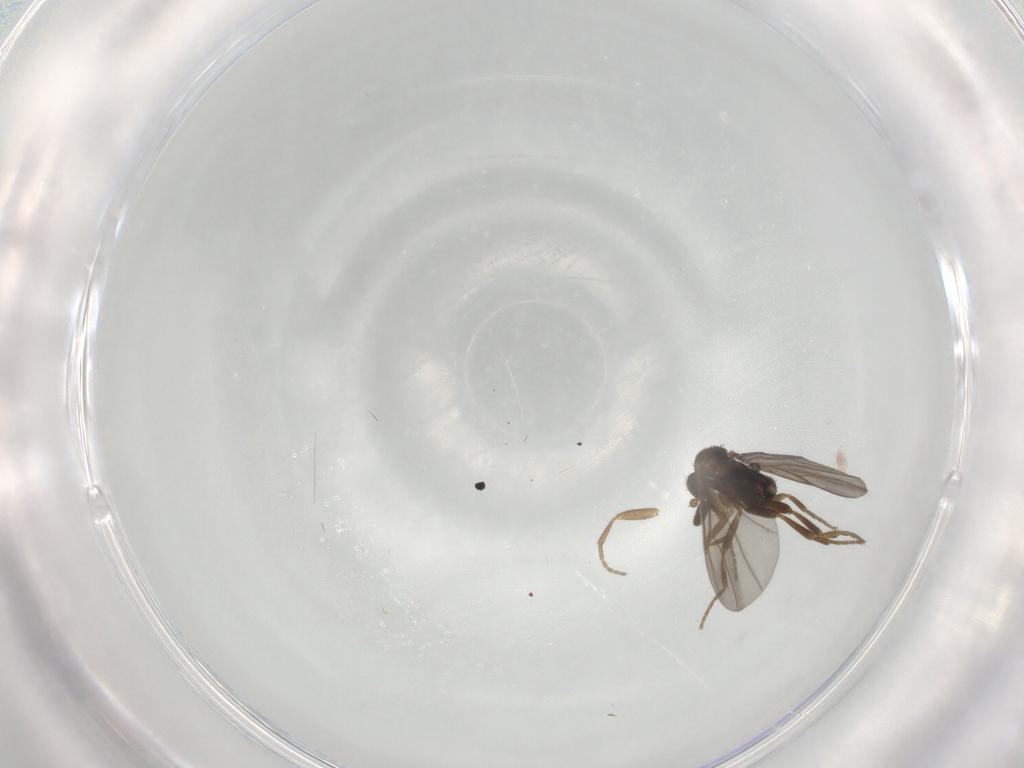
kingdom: Animalia
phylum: Arthropoda
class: Insecta
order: Diptera
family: Phoridae
